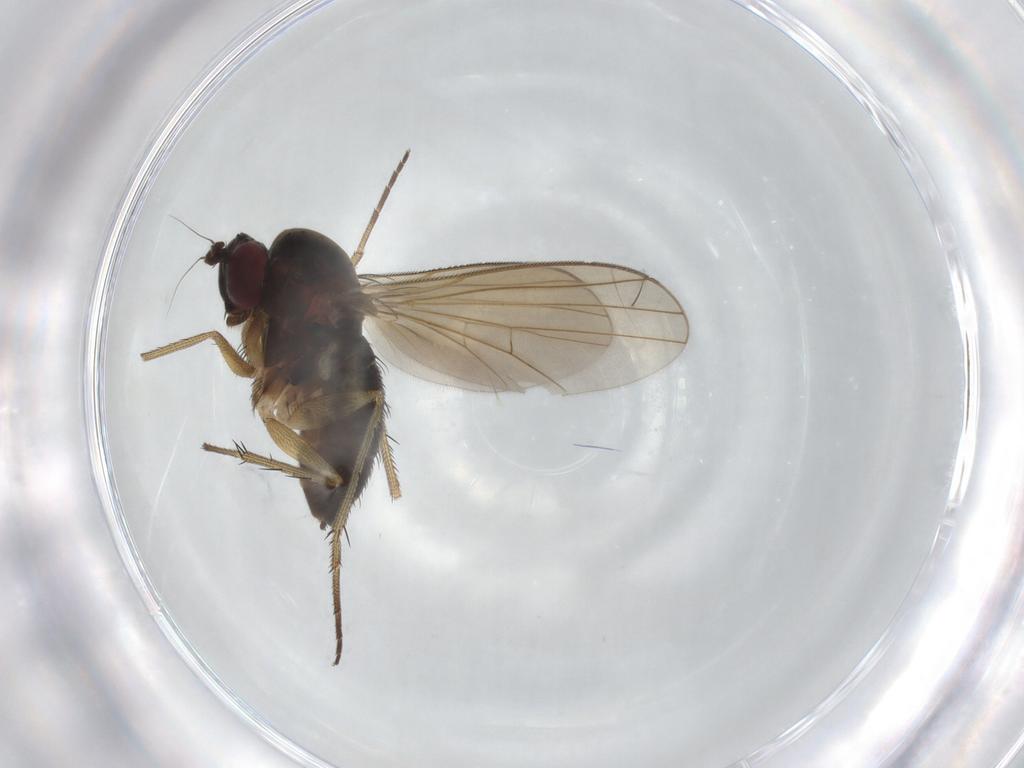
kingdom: Animalia
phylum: Arthropoda
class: Insecta
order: Diptera
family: Dolichopodidae
